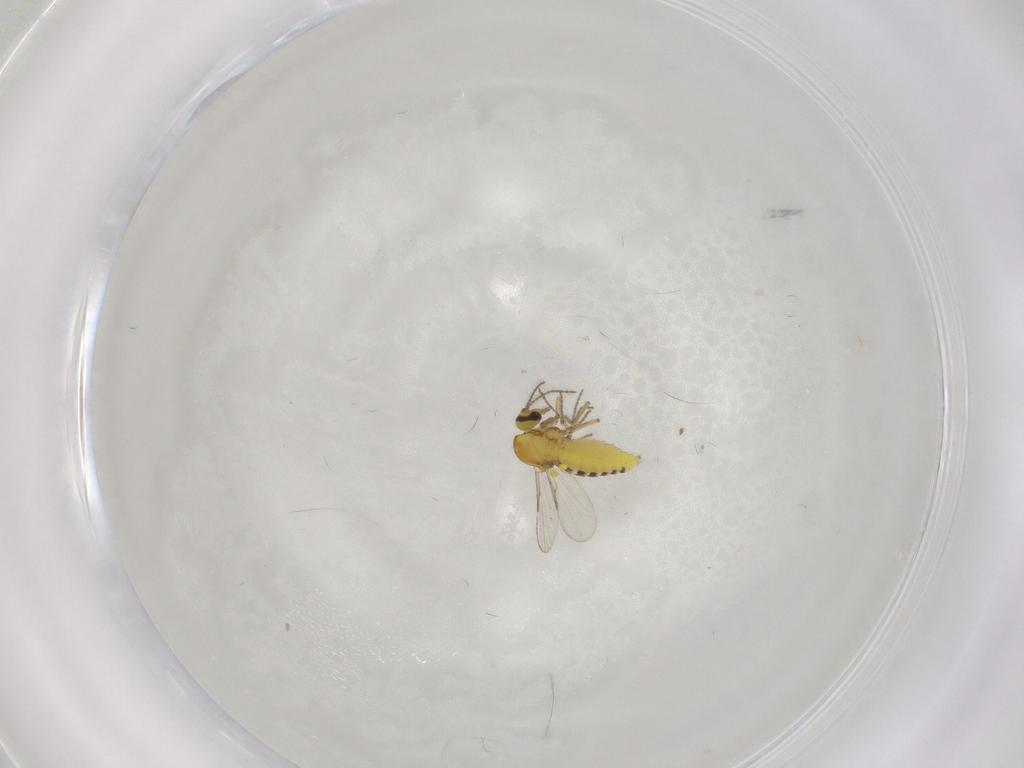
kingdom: Animalia
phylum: Arthropoda
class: Insecta
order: Diptera
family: Ceratopogonidae
